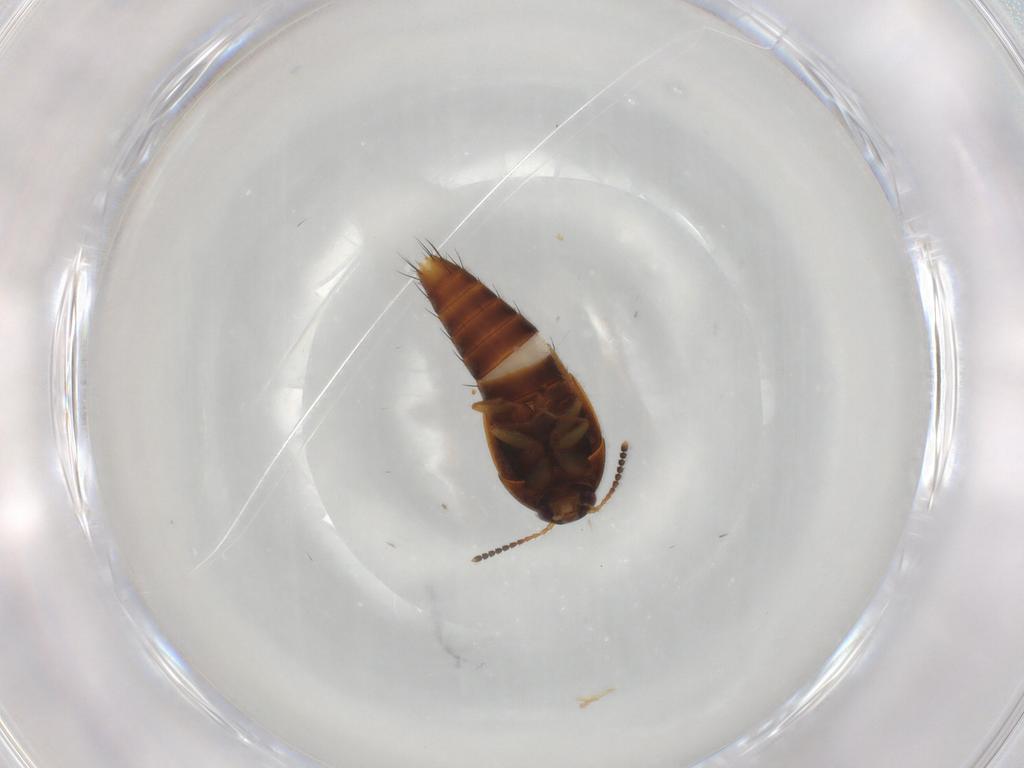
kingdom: Animalia
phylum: Arthropoda
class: Insecta
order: Coleoptera
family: Staphylinidae
